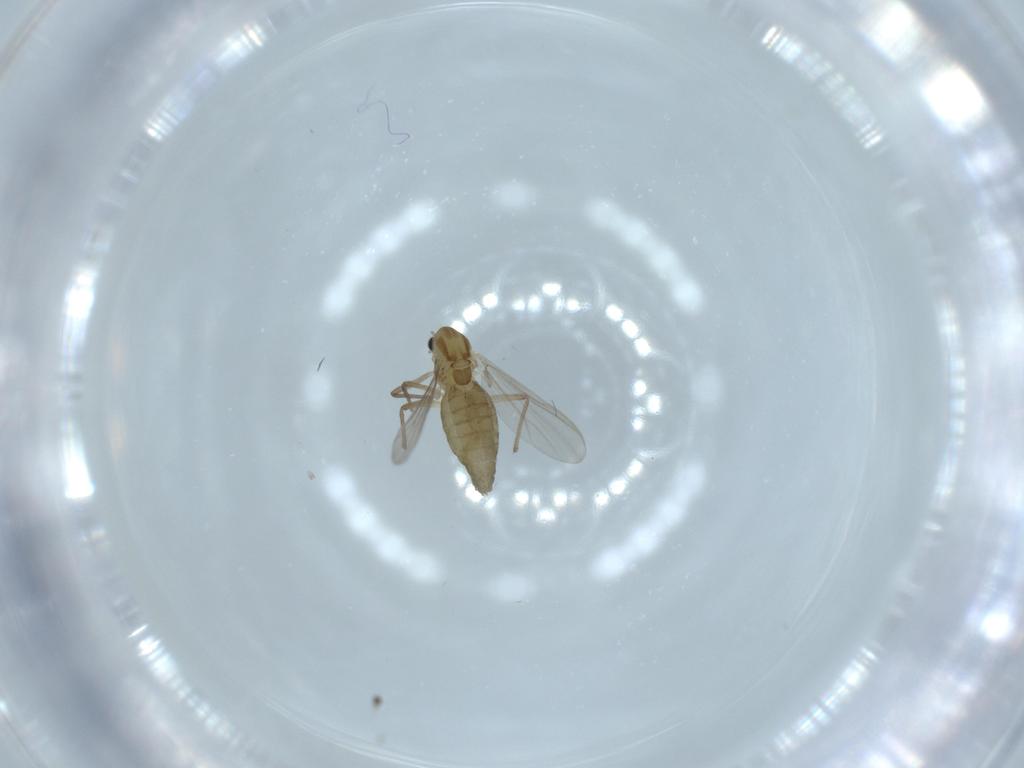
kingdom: Animalia
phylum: Arthropoda
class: Insecta
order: Diptera
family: Chironomidae
